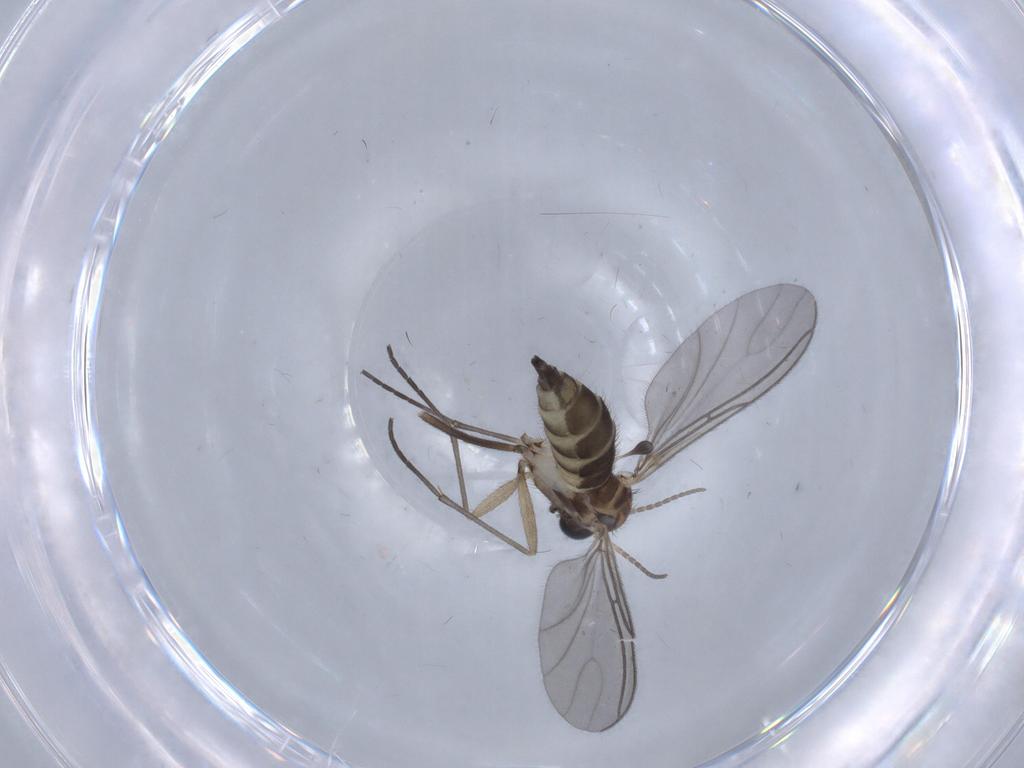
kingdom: Animalia
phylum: Arthropoda
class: Insecta
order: Diptera
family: Sciaridae
